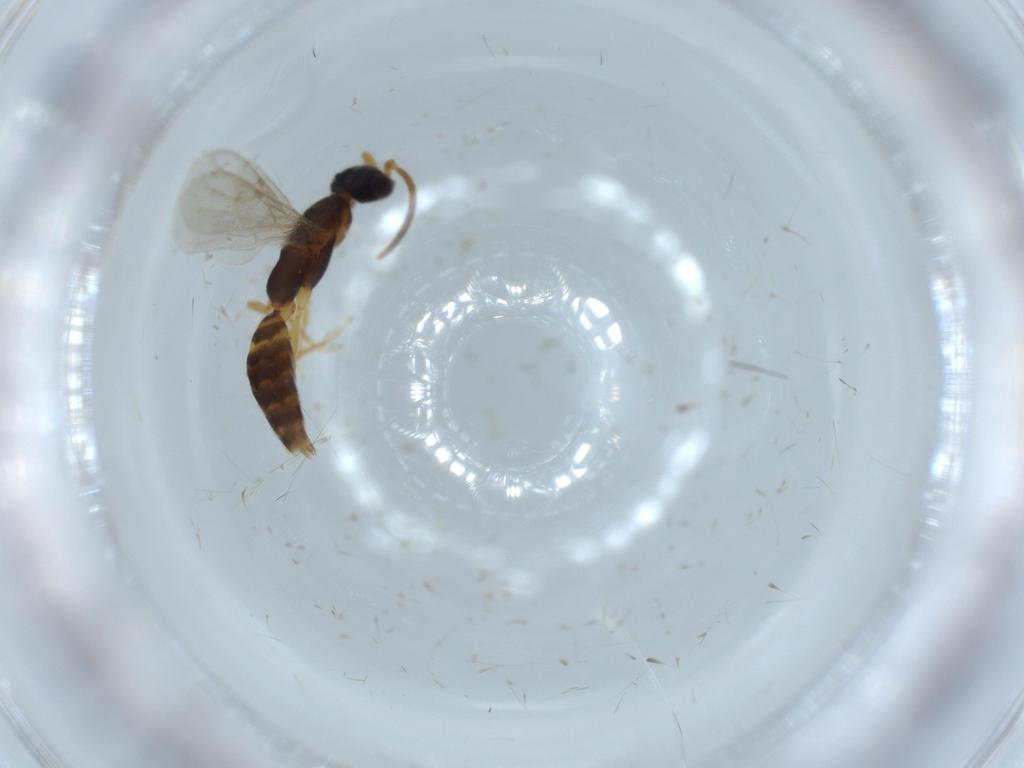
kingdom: Animalia
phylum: Arthropoda
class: Insecta
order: Hymenoptera
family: Bethylidae
